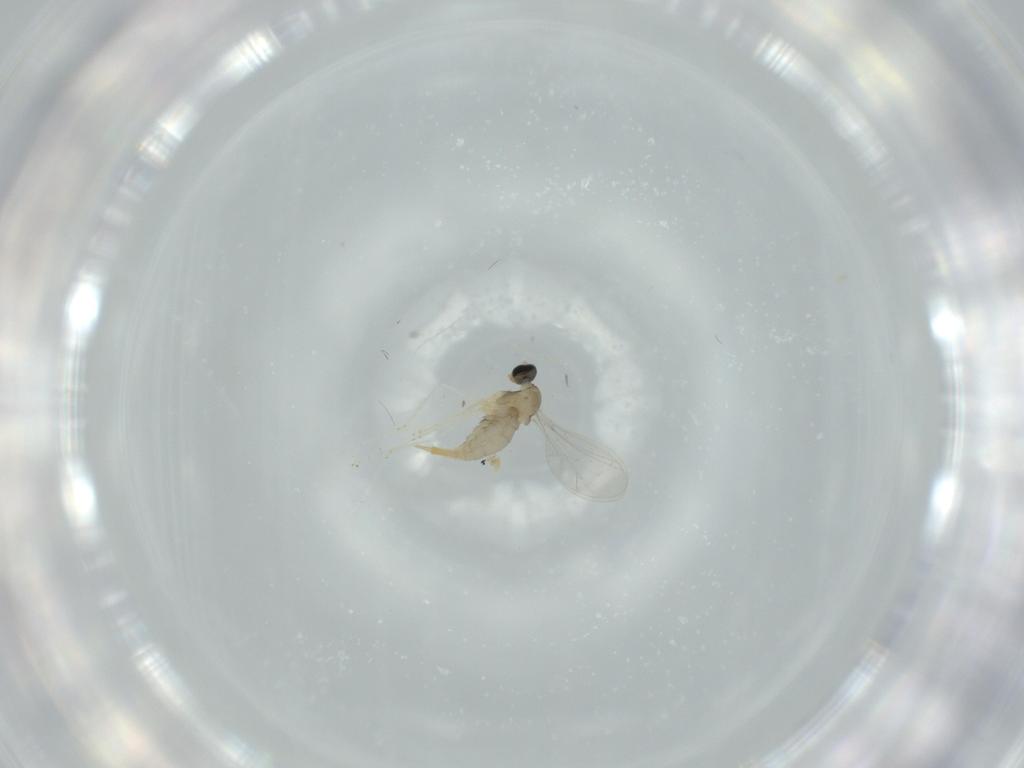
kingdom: Animalia
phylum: Arthropoda
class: Insecta
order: Diptera
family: Cecidomyiidae
